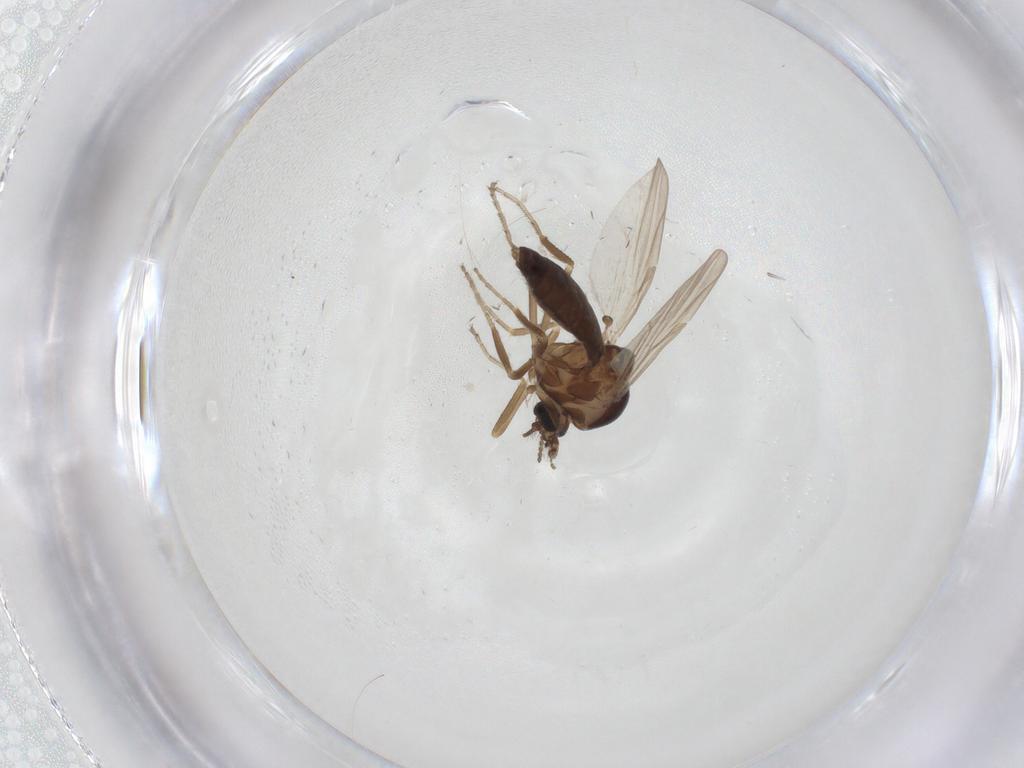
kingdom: Animalia
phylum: Arthropoda
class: Insecta
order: Diptera
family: Ceratopogonidae
